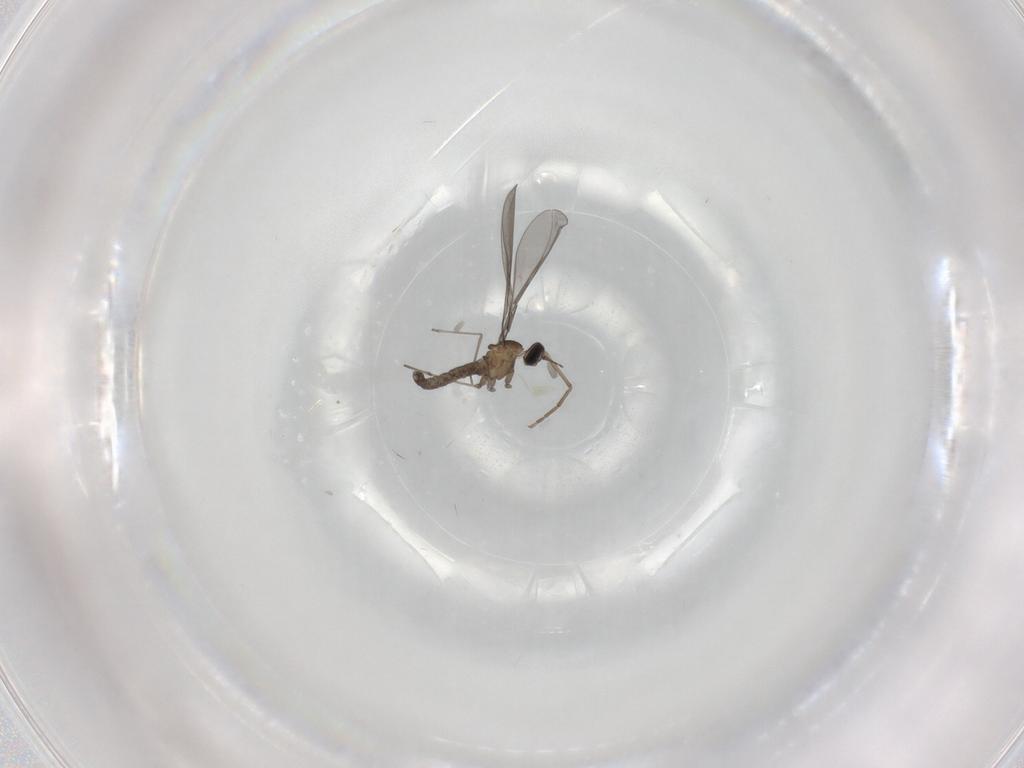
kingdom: Animalia
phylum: Arthropoda
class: Insecta
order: Diptera
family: Cecidomyiidae
